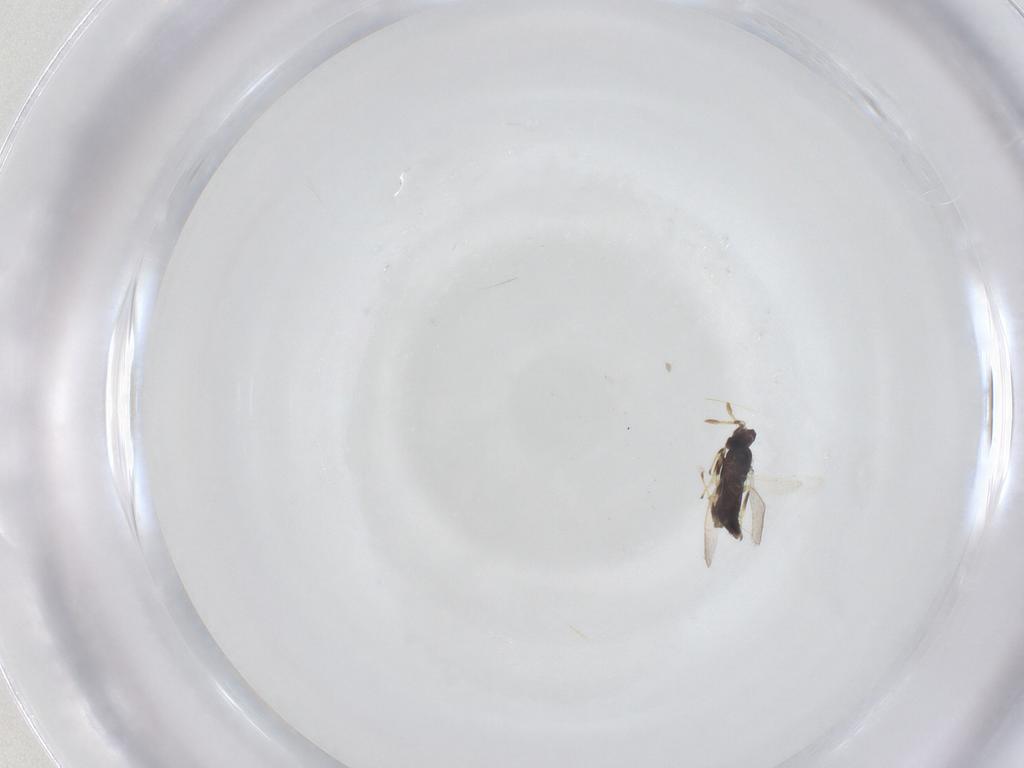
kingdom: Animalia
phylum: Arthropoda
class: Insecta
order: Hymenoptera
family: Aphelinidae
